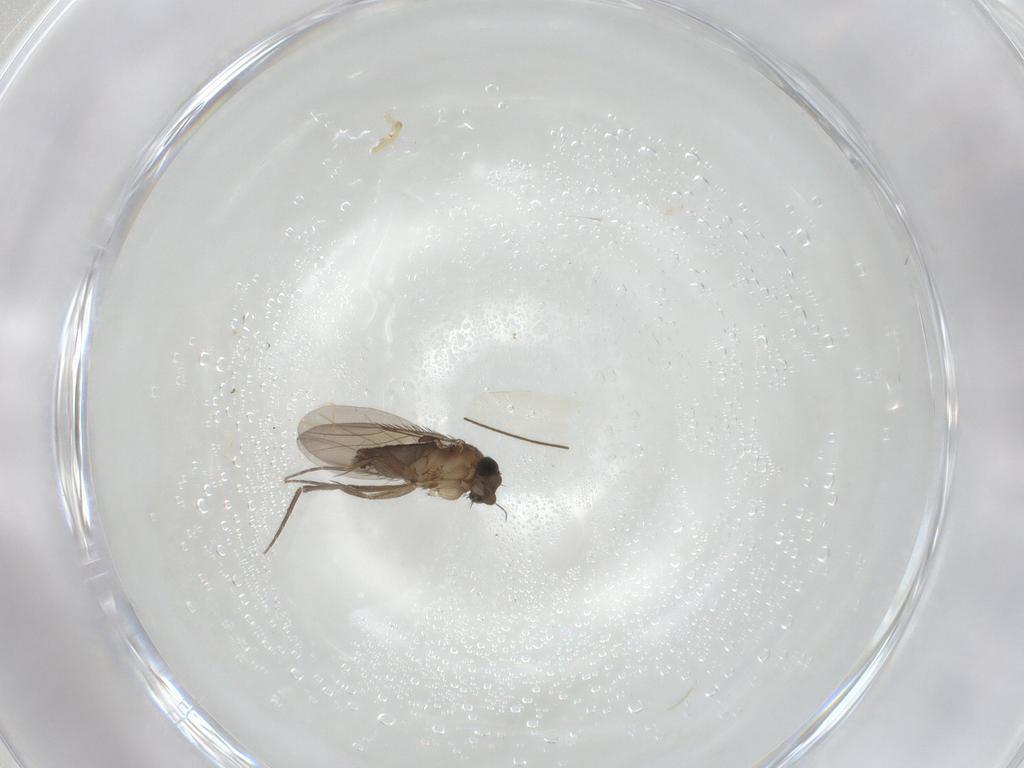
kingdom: Animalia
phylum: Arthropoda
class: Insecta
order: Diptera
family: Phoridae
